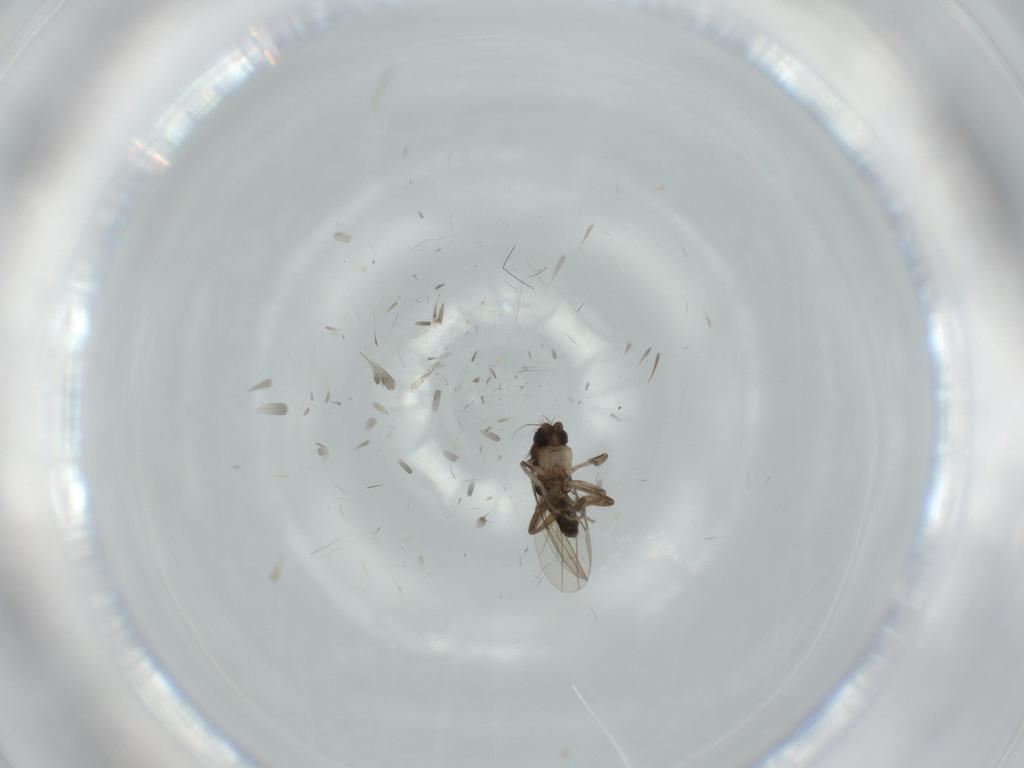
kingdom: Animalia
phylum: Arthropoda
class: Insecta
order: Diptera
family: Phoridae
